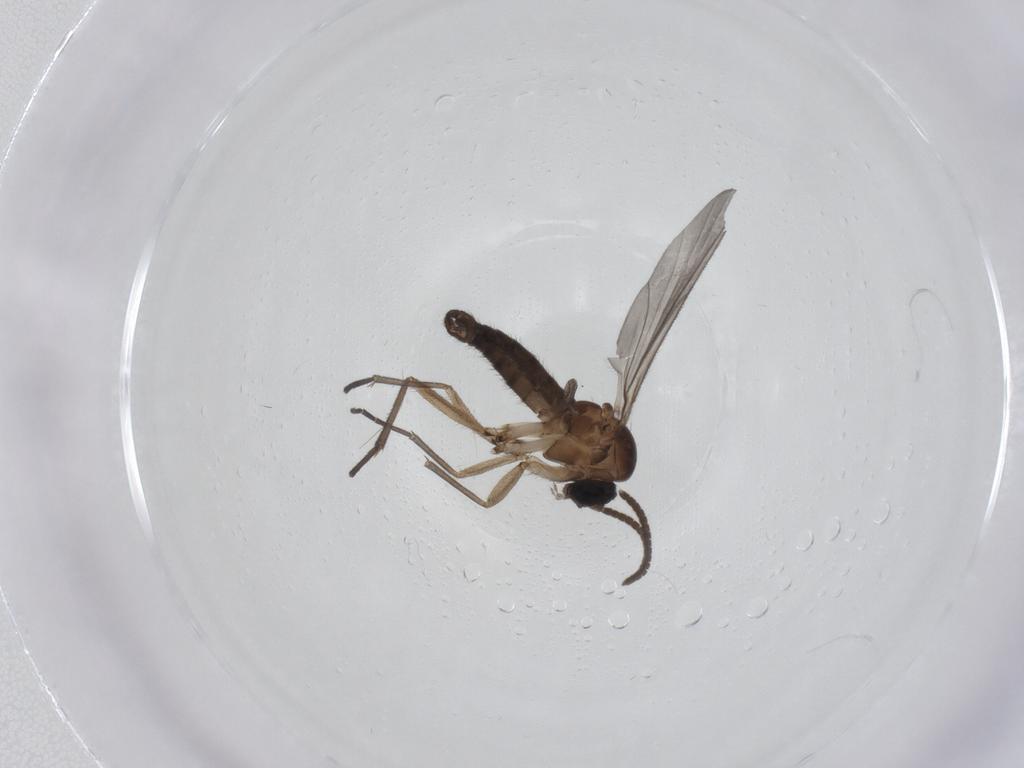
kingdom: Animalia
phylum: Arthropoda
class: Insecta
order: Diptera
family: Sciaridae
